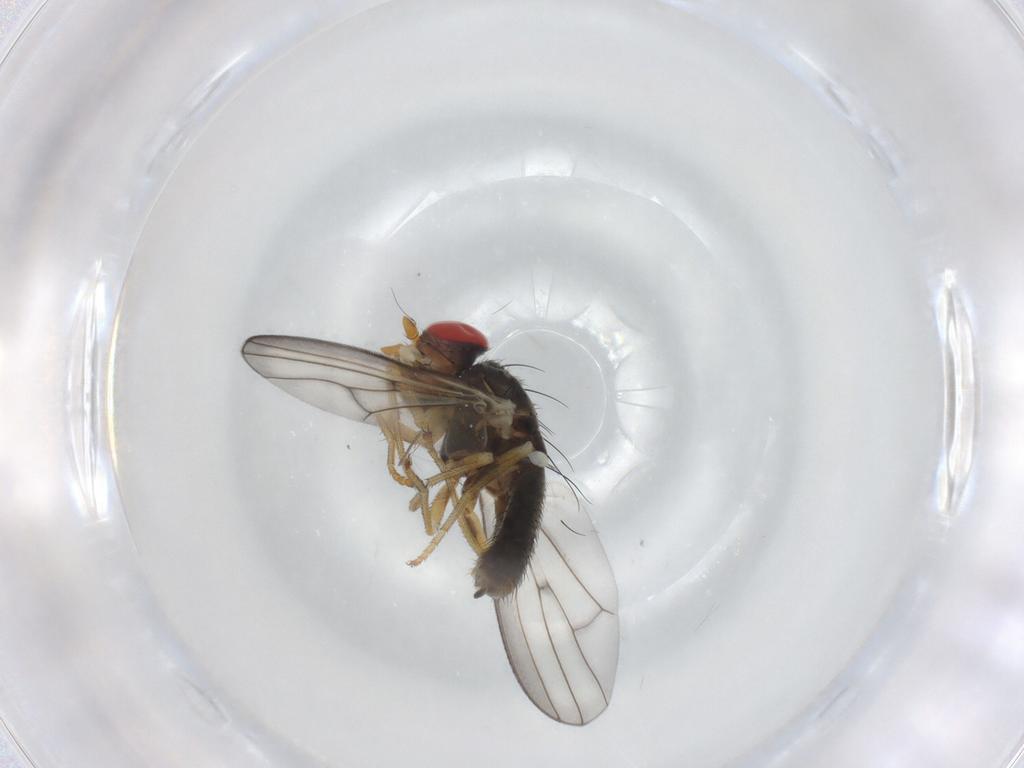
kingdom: Animalia
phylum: Arthropoda
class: Insecta
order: Diptera
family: Chamaemyiidae
